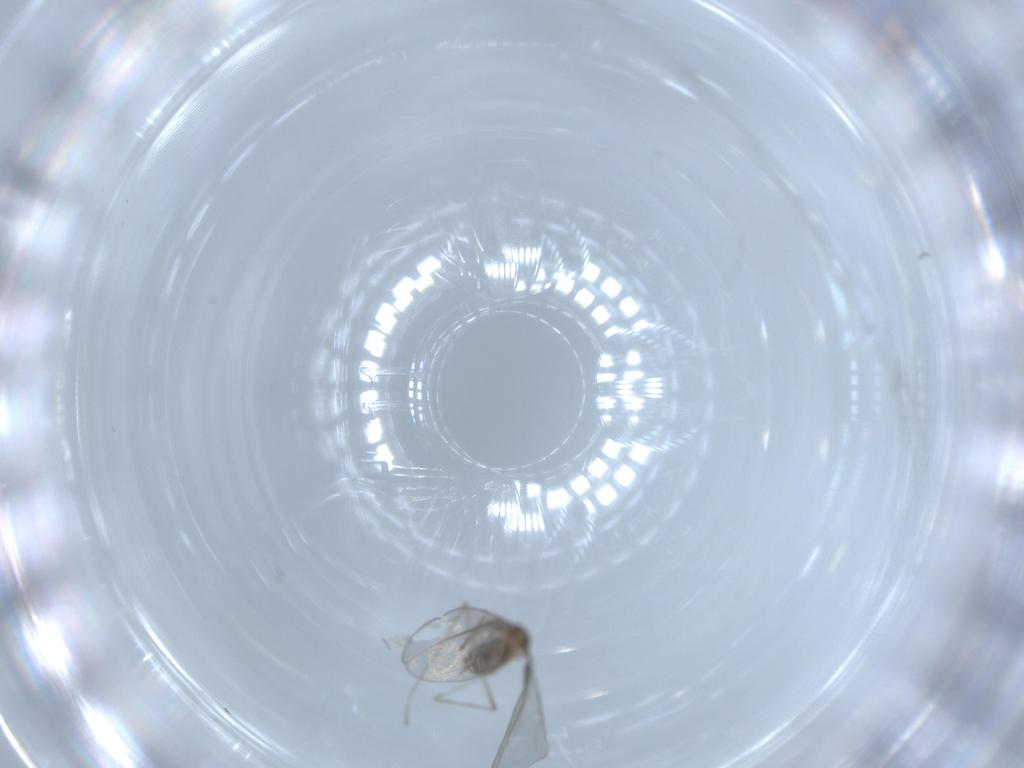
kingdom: Animalia
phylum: Arthropoda
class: Insecta
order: Diptera
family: Cecidomyiidae
